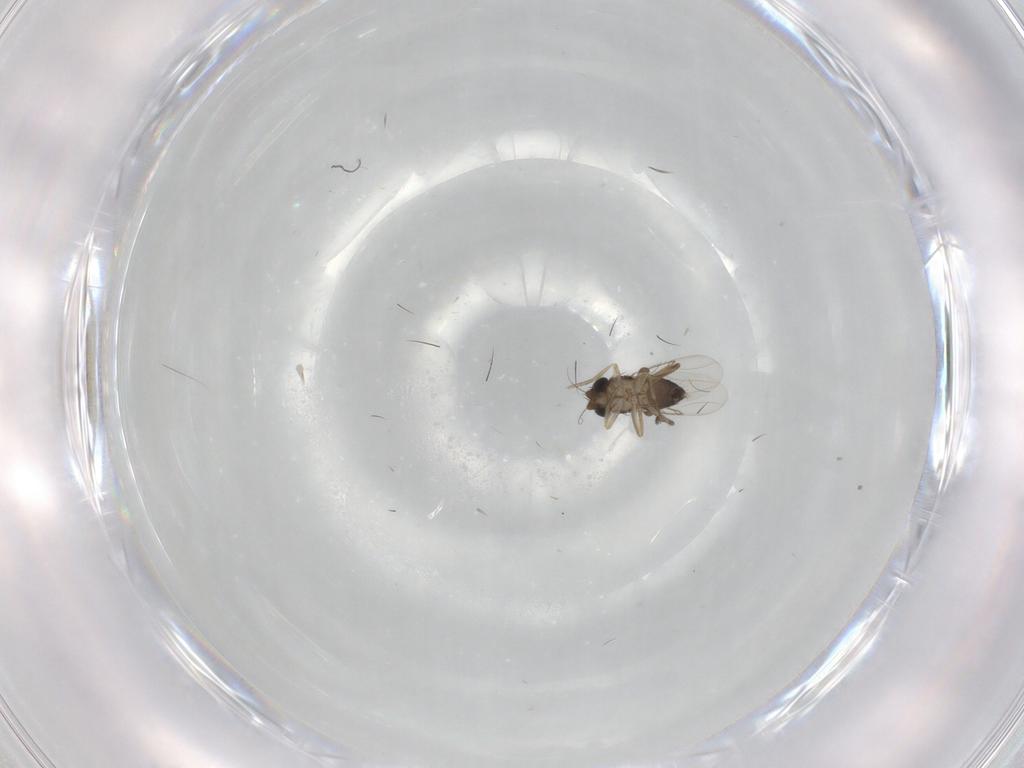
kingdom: Animalia
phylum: Arthropoda
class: Insecta
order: Diptera
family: Phoridae
